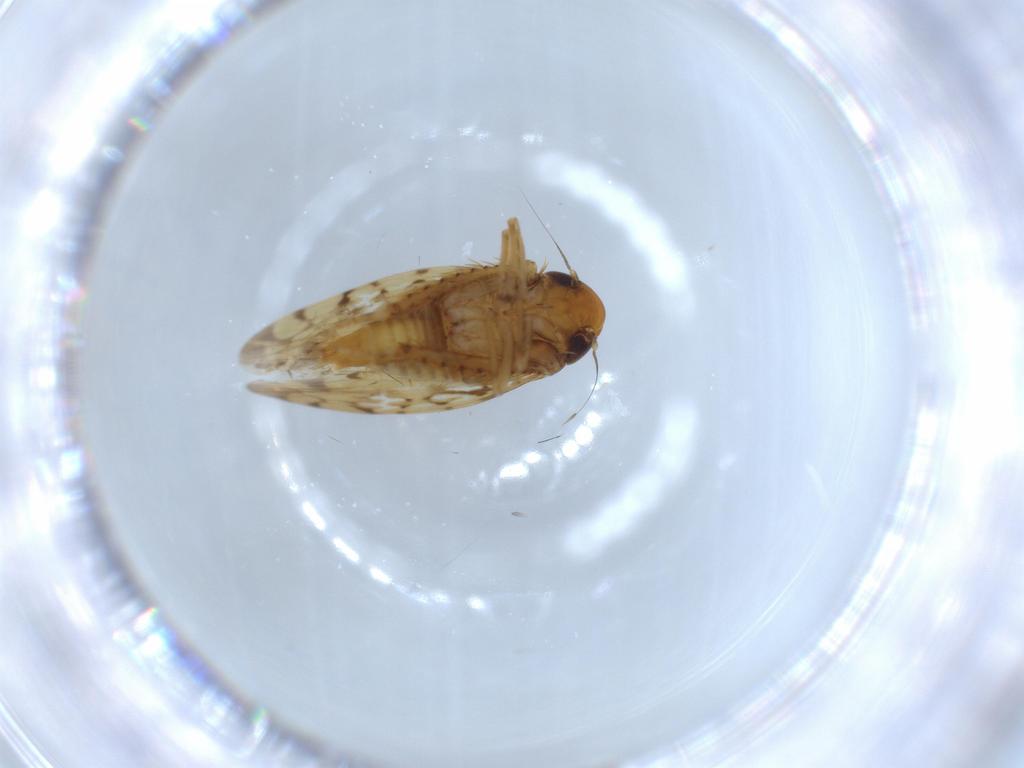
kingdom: Animalia
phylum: Arthropoda
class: Insecta
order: Hemiptera
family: Cicadellidae
